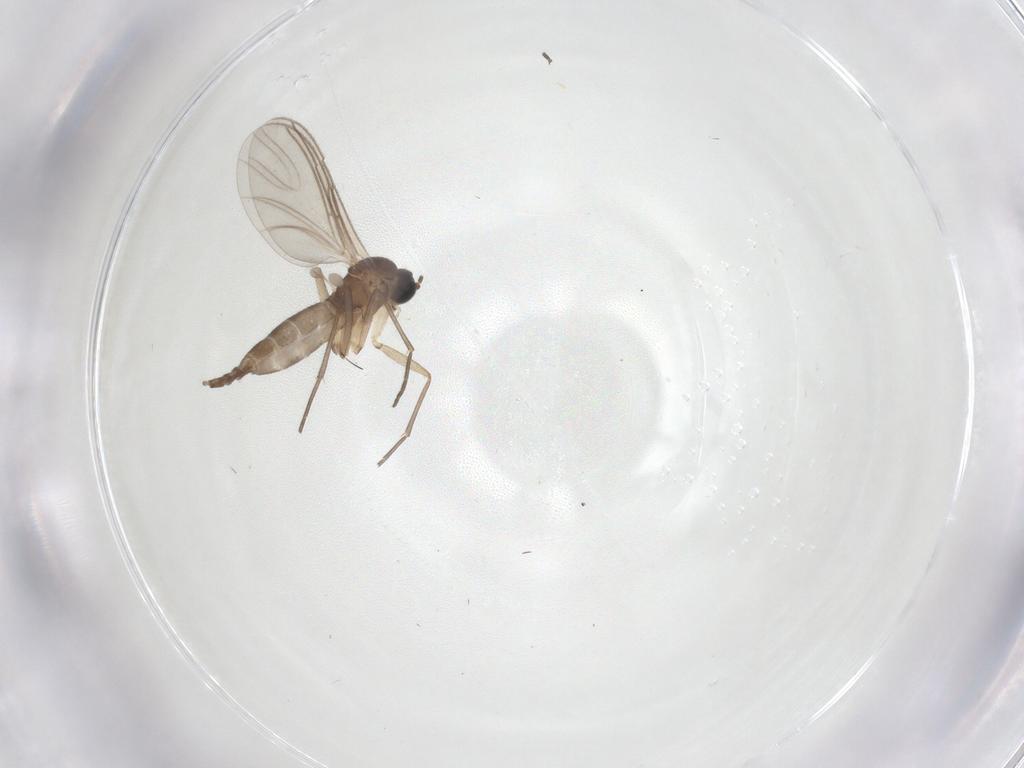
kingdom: Animalia
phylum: Arthropoda
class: Insecta
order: Diptera
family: Sciaridae
